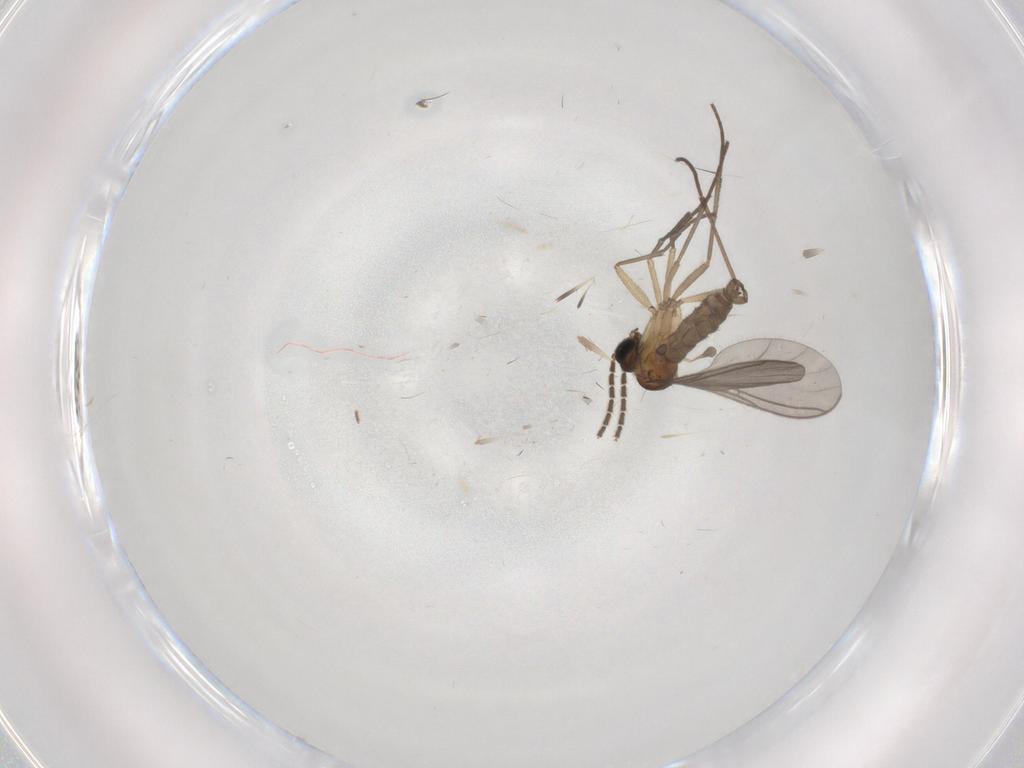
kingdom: Animalia
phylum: Arthropoda
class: Insecta
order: Diptera
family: Sciaridae
